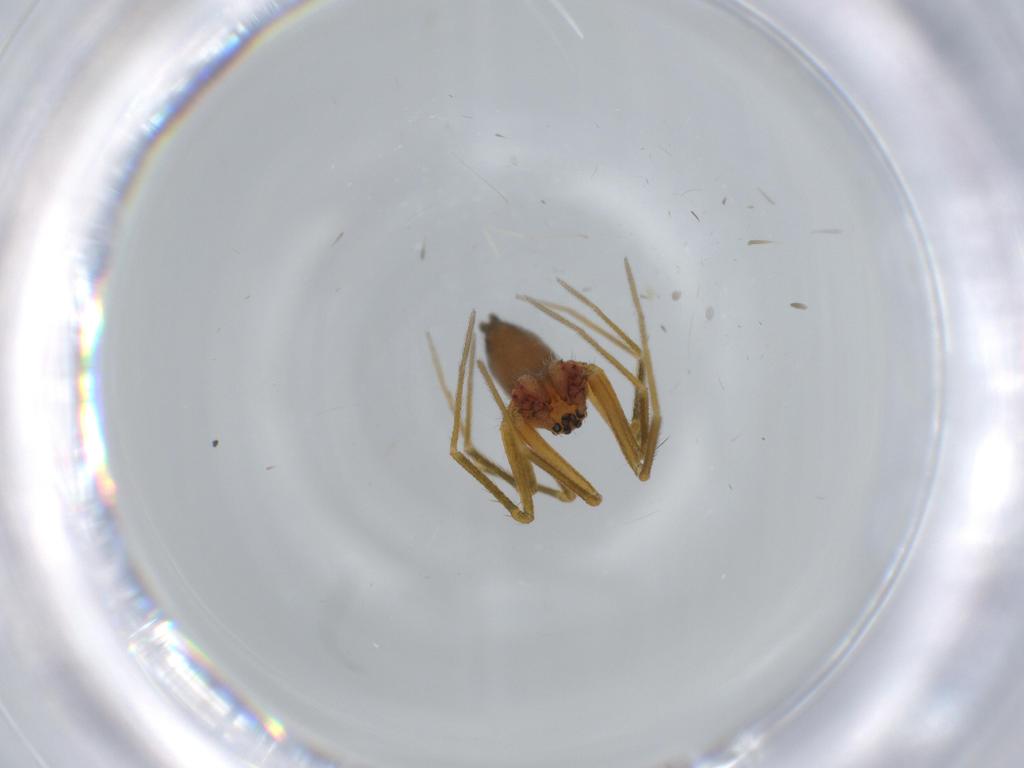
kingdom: Animalia
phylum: Arthropoda
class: Arachnida
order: Araneae
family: Linyphiidae
